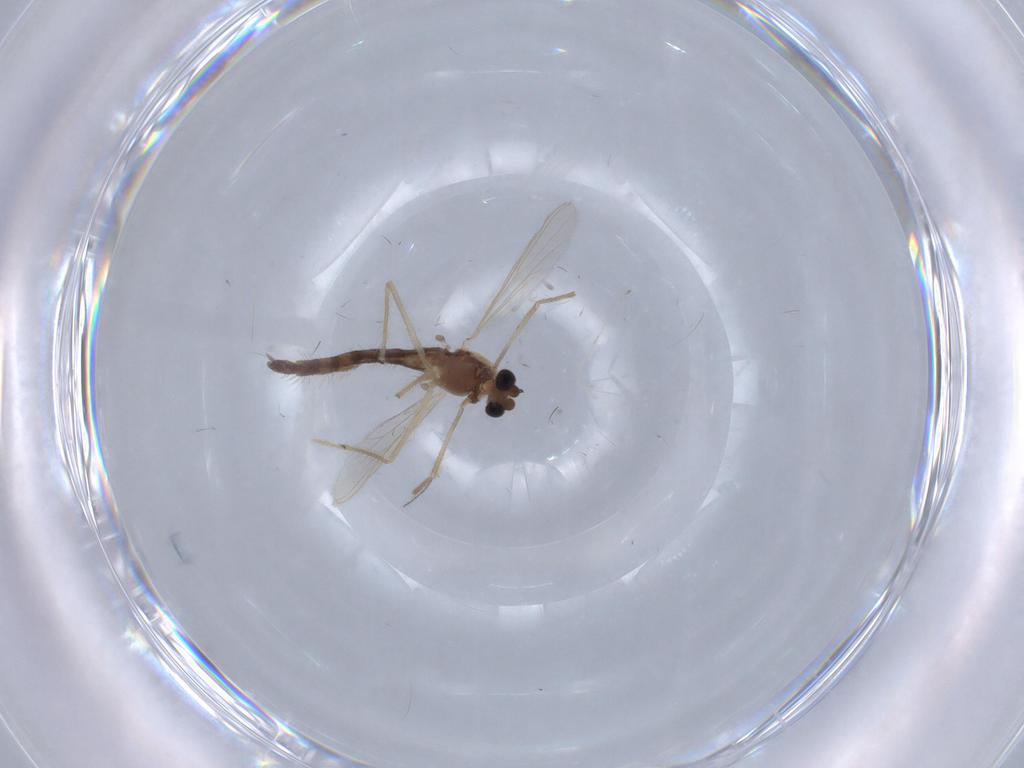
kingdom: Animalia
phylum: Arthropoda
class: Insecta
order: Diptera
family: Chironomidae
